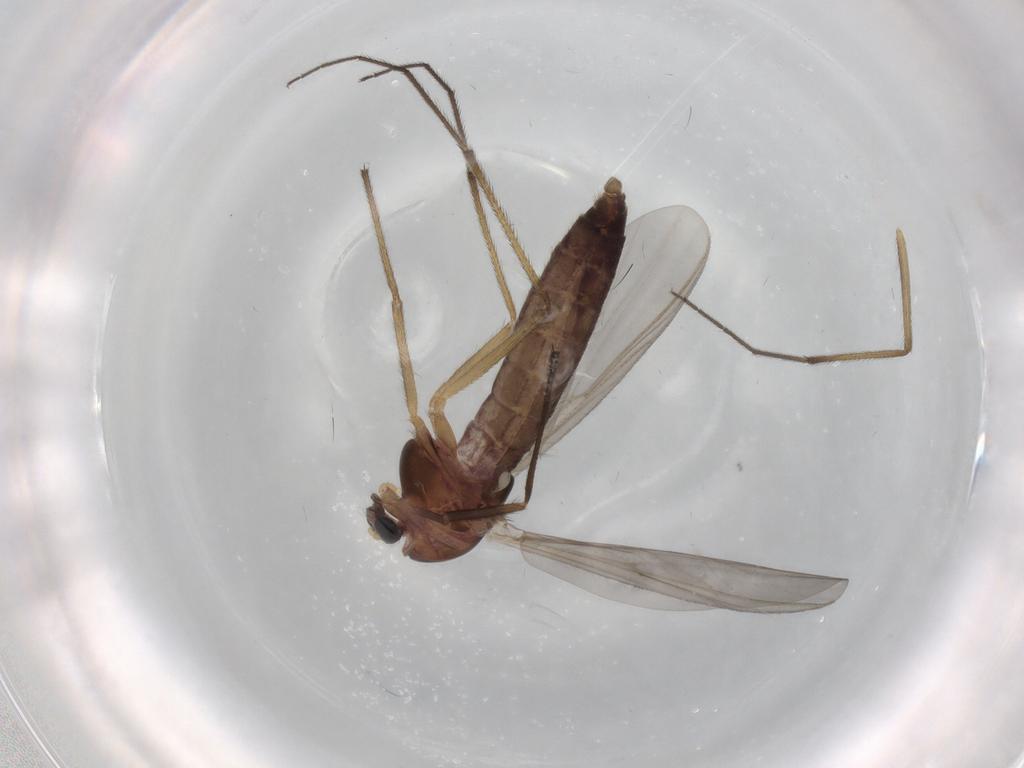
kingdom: Animalia
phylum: Arthropoda
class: Insecta
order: Diptera
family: Chironomidae
